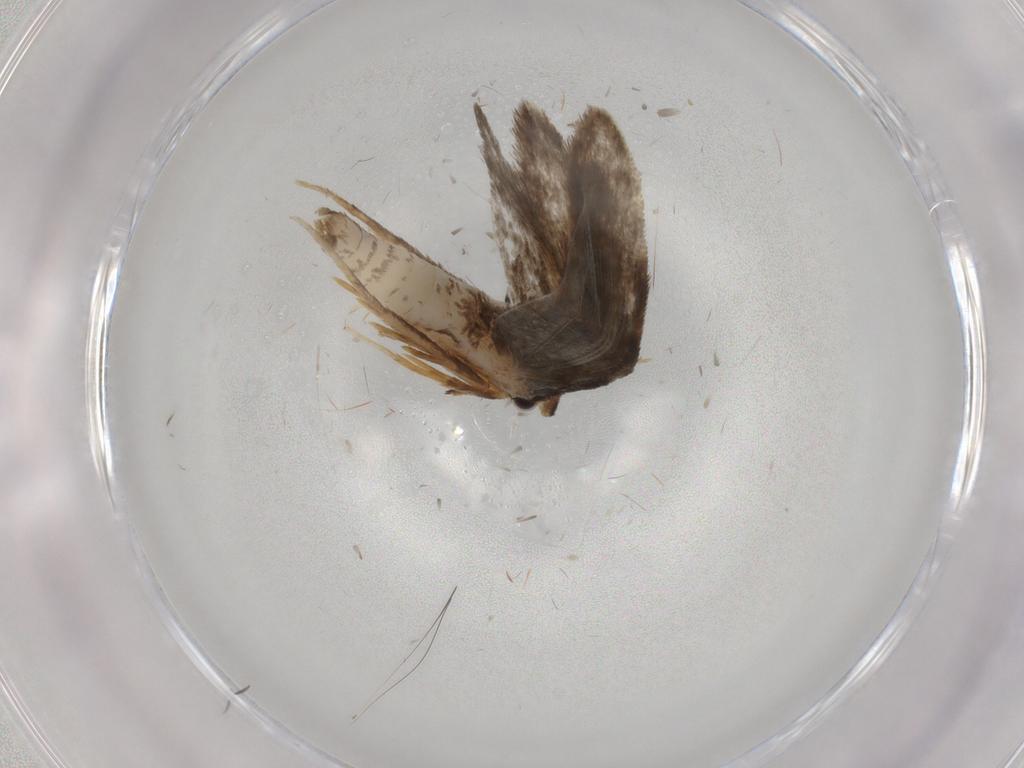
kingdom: Animalia
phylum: Arthropoda
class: Insecta
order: Lepidoptera
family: Psychidae
